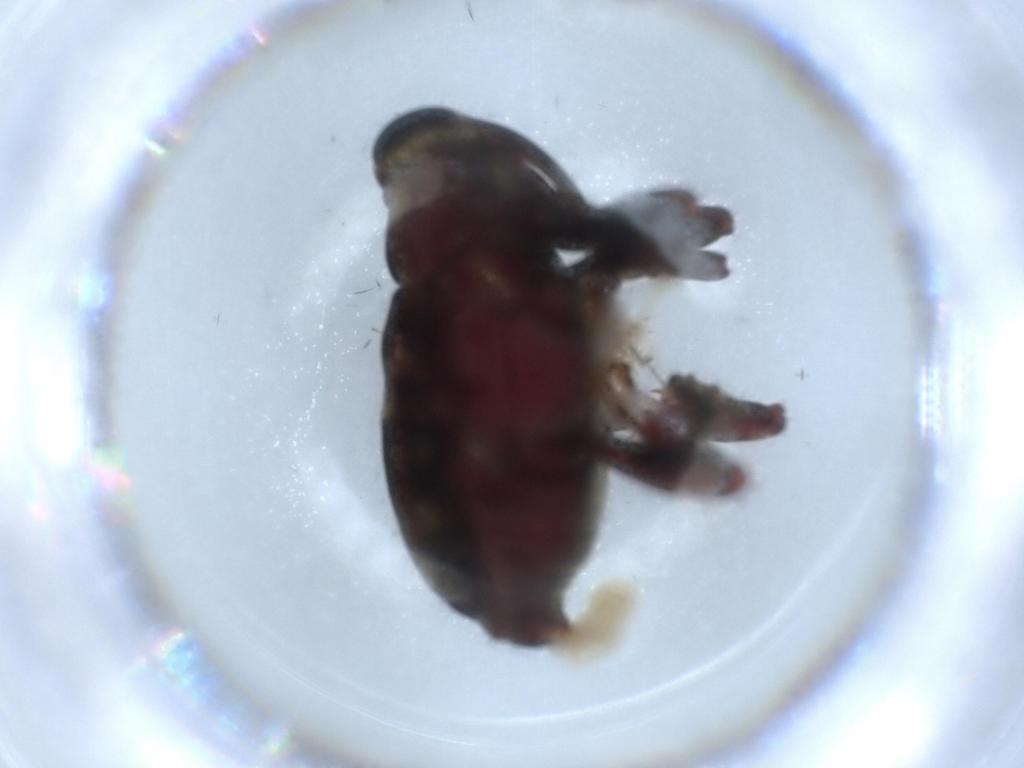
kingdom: Animalia
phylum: Arthropoda
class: Insecta
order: Coleoptera
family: Curculionidae
